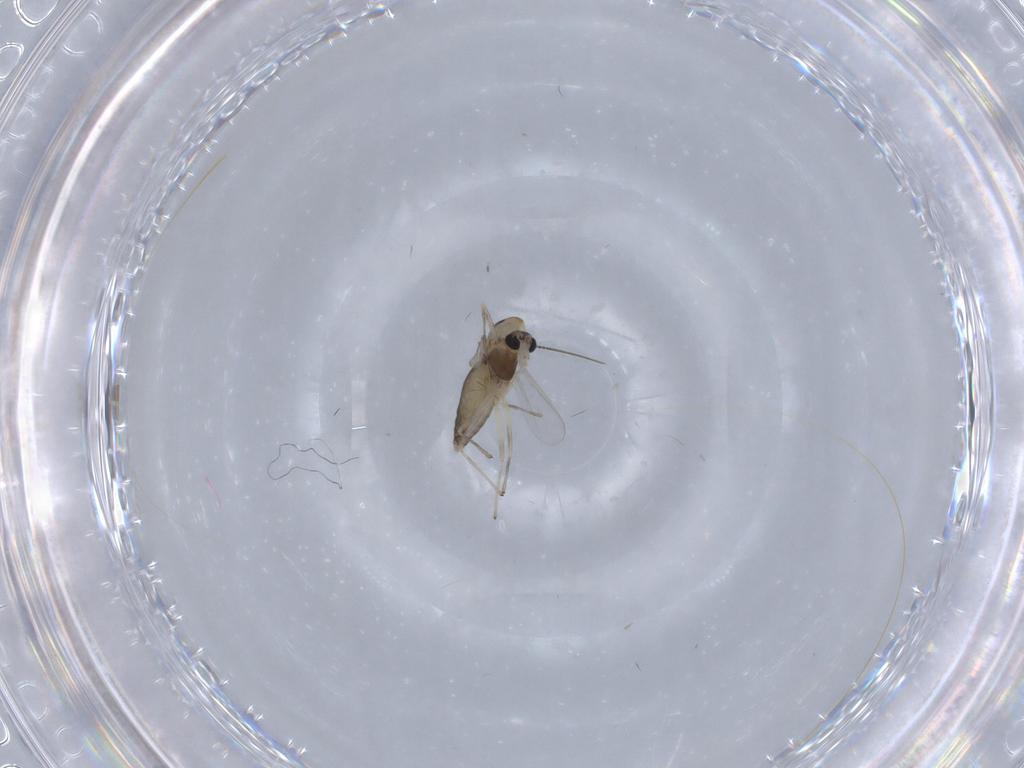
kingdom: Animalia
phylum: Arthropoda
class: Insecta
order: Diptera
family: Chironomidae
